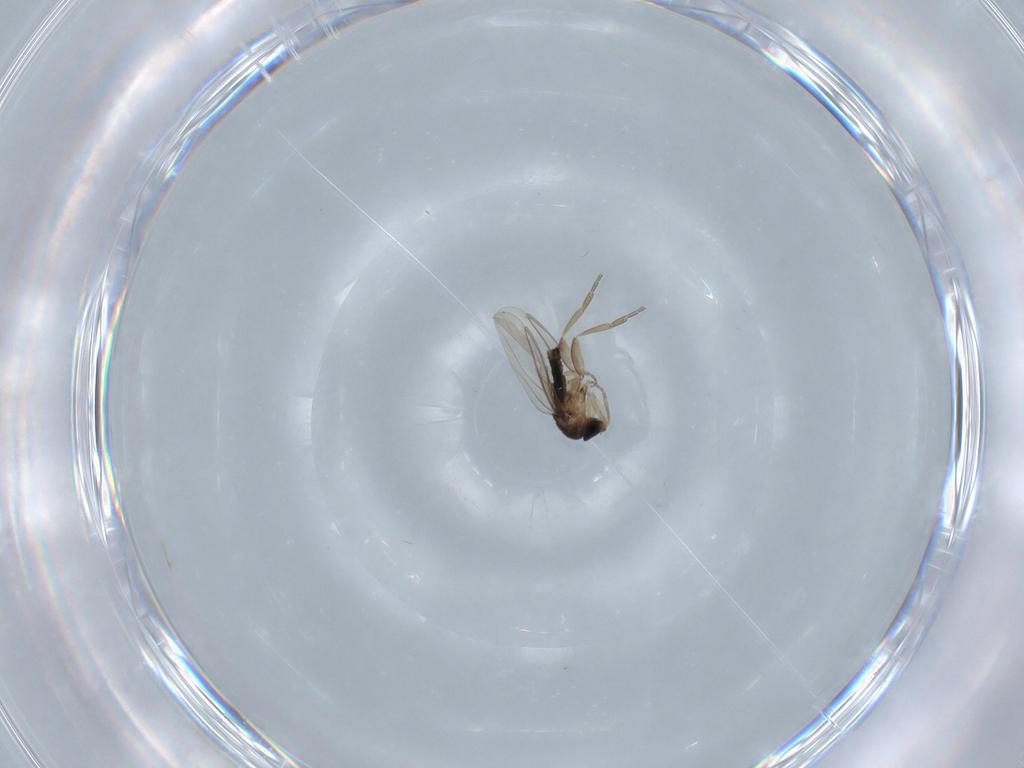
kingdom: Animalia
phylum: Arthropoda
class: Insecta
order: Diptera
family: Phoridae
